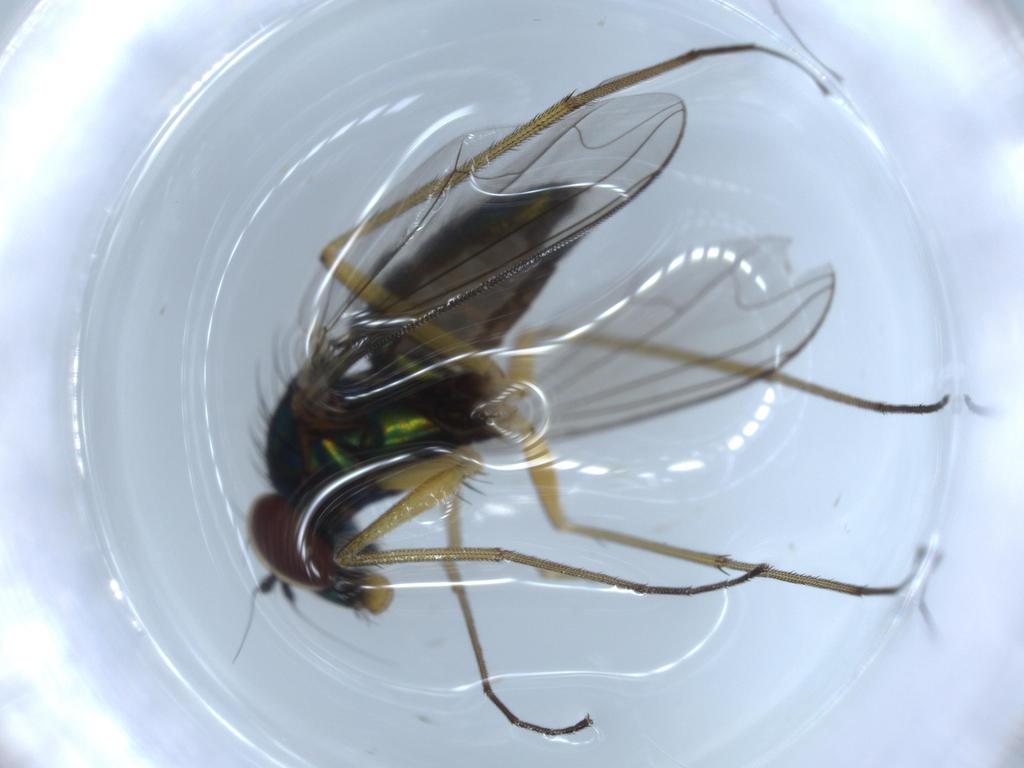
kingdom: Animalia
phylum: Arthropoda
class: Insecta
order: Diptera
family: Dolichopodidae
